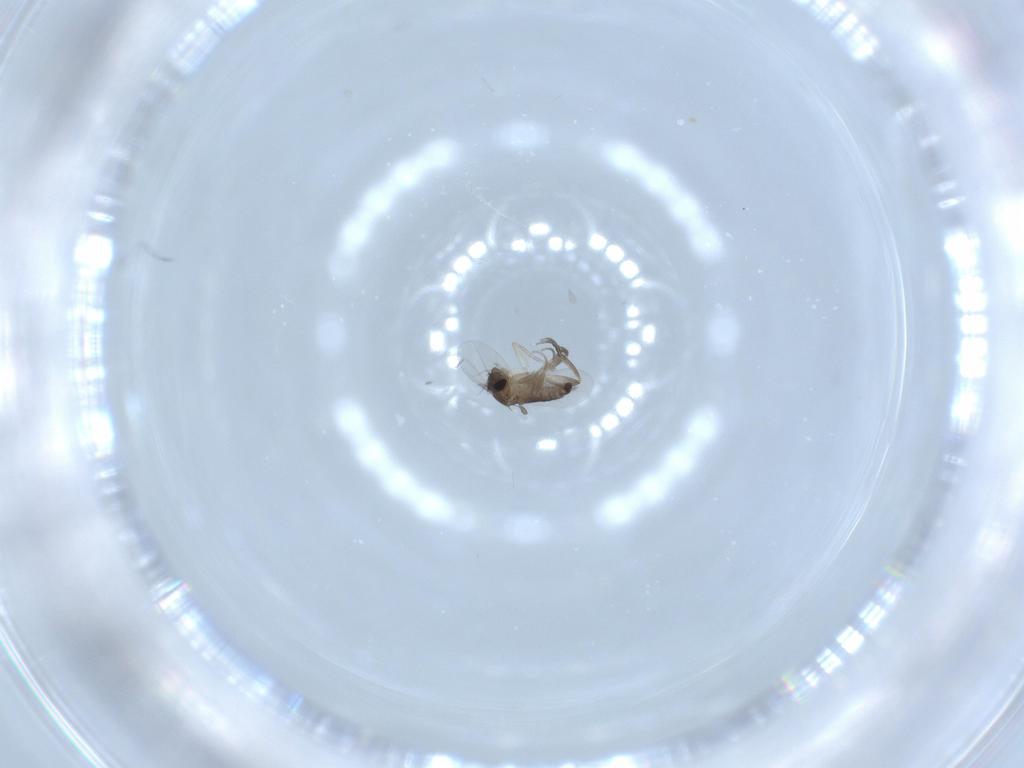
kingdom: Animalia
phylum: Arthropoda
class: Insecta
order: Diptera
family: Phoridae
